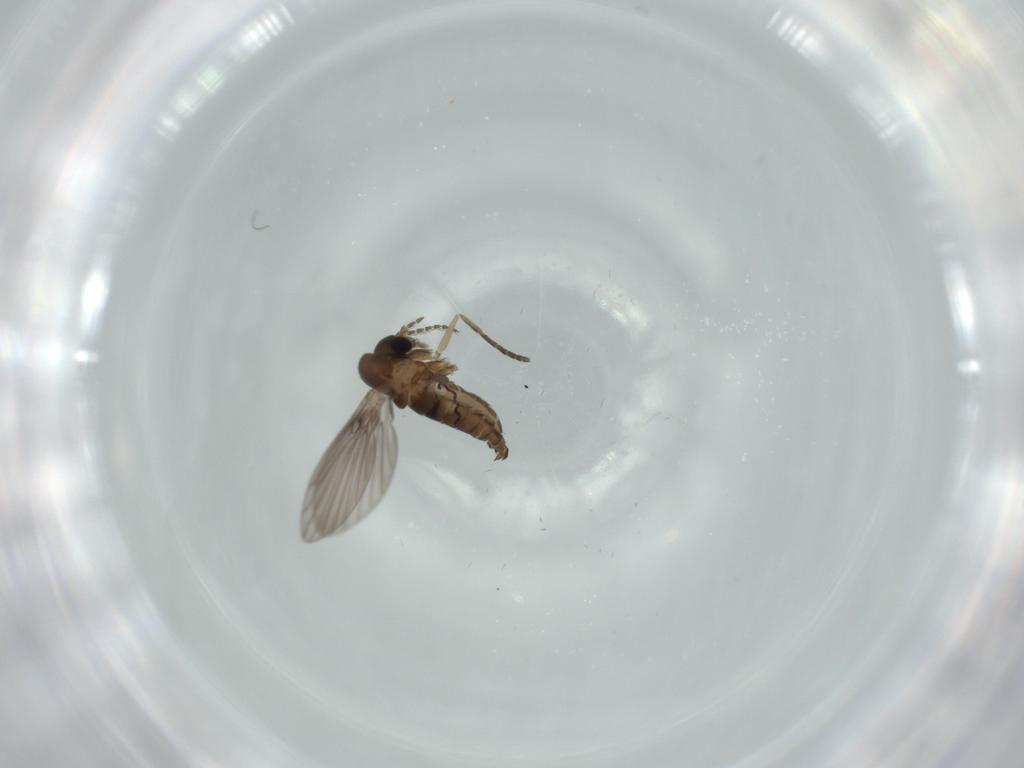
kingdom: Animalia
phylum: Arthropoda
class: Insecta
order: Diptera
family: Psychodidae
